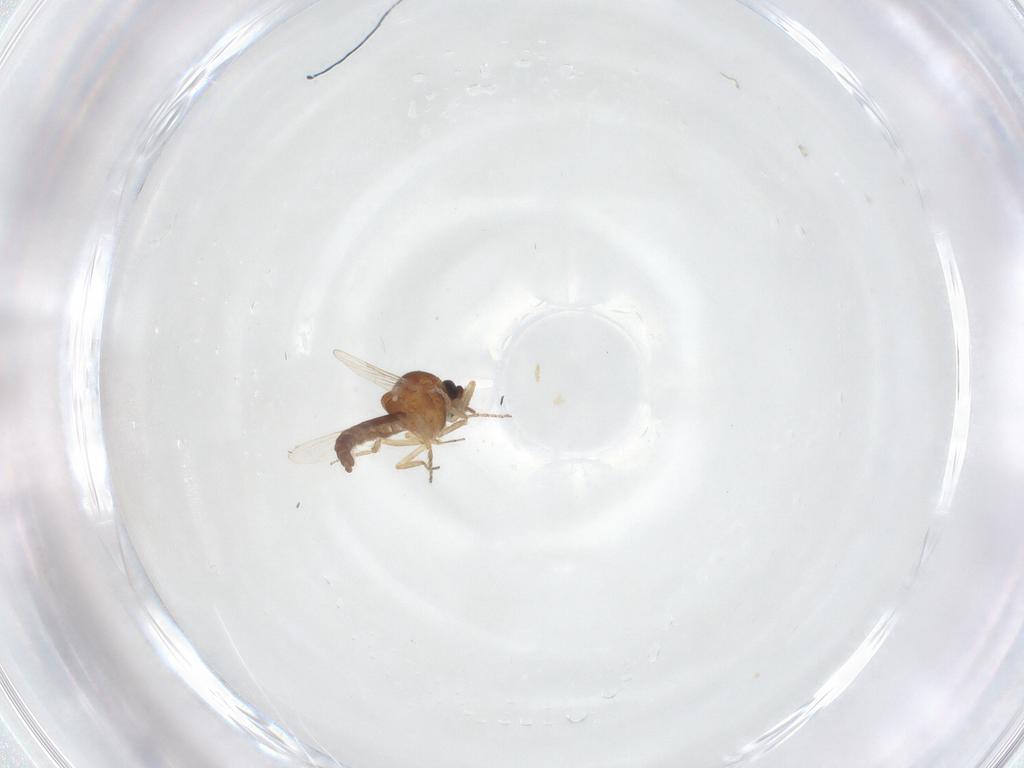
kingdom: Animalia
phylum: Arthropoda
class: Insecta
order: Diptera
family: Ceratopogonidae
